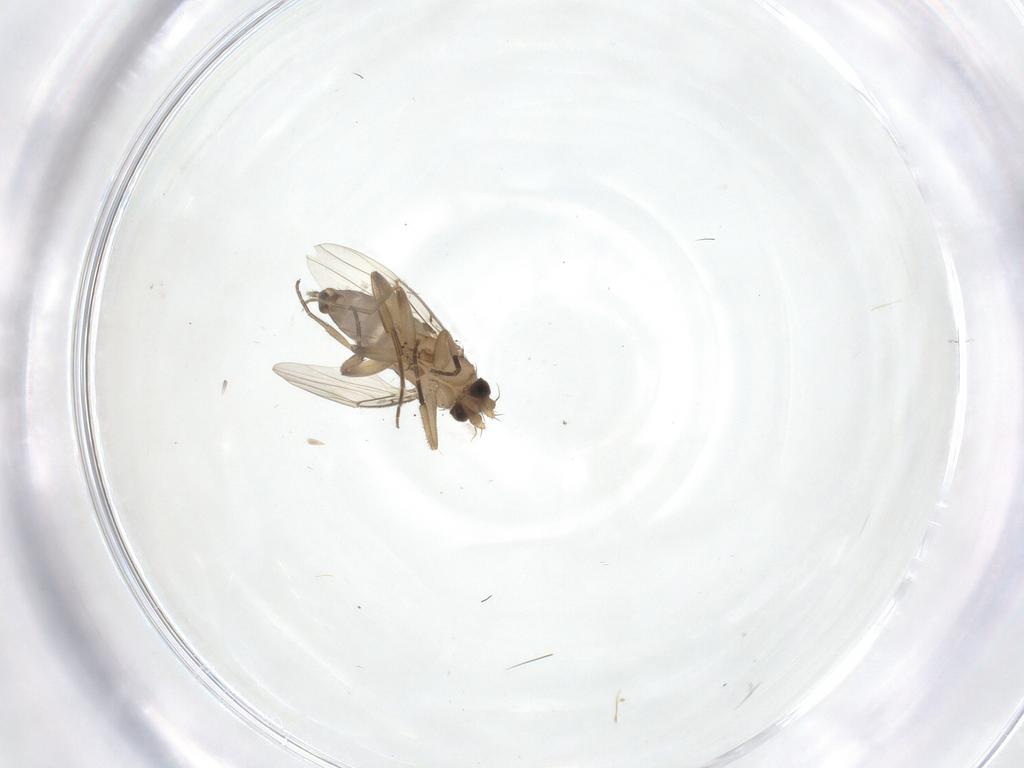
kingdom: Animalia
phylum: Arthropoda
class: Insecta
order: Diptera
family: Phoridae
